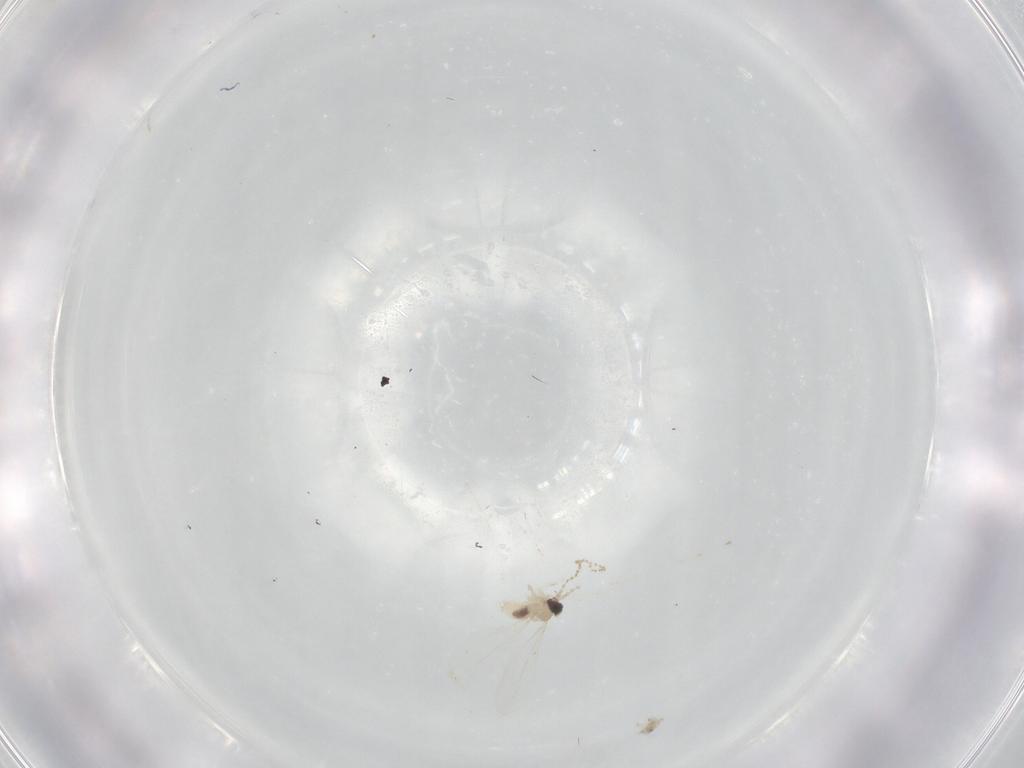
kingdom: Animalia
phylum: Arthropoda
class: Insecta
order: Diptera
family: Cecidomyiidae
